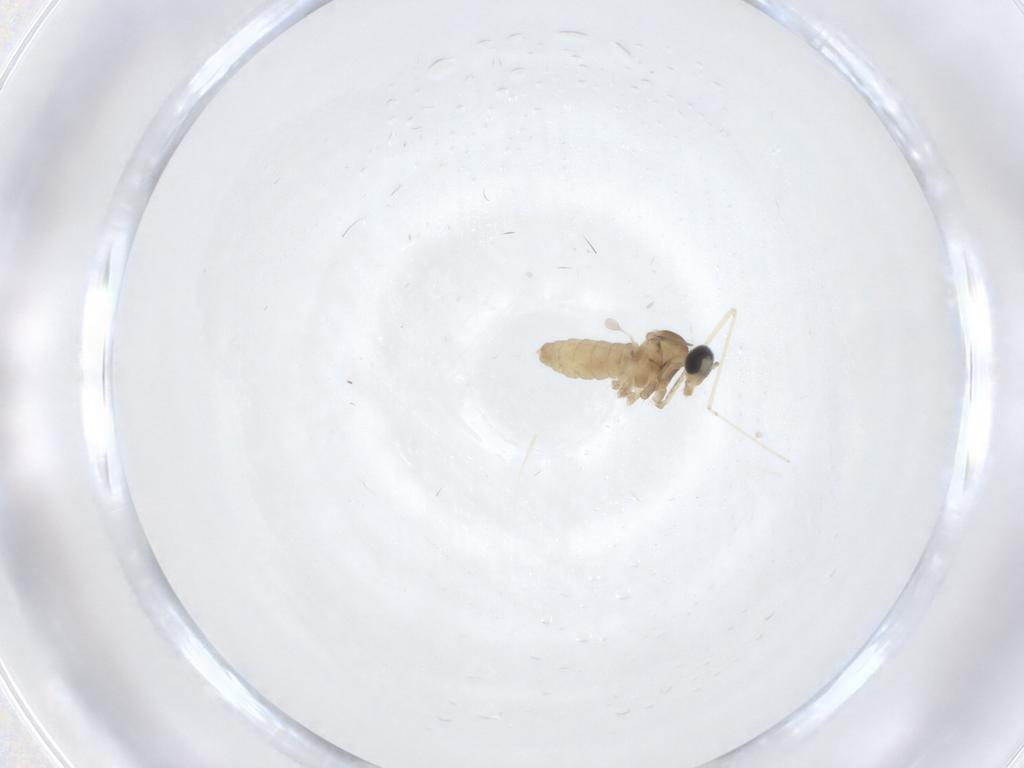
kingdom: Animalia
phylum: Arthropoda
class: Insecta
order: Diptera
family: Cecidomyiidae
